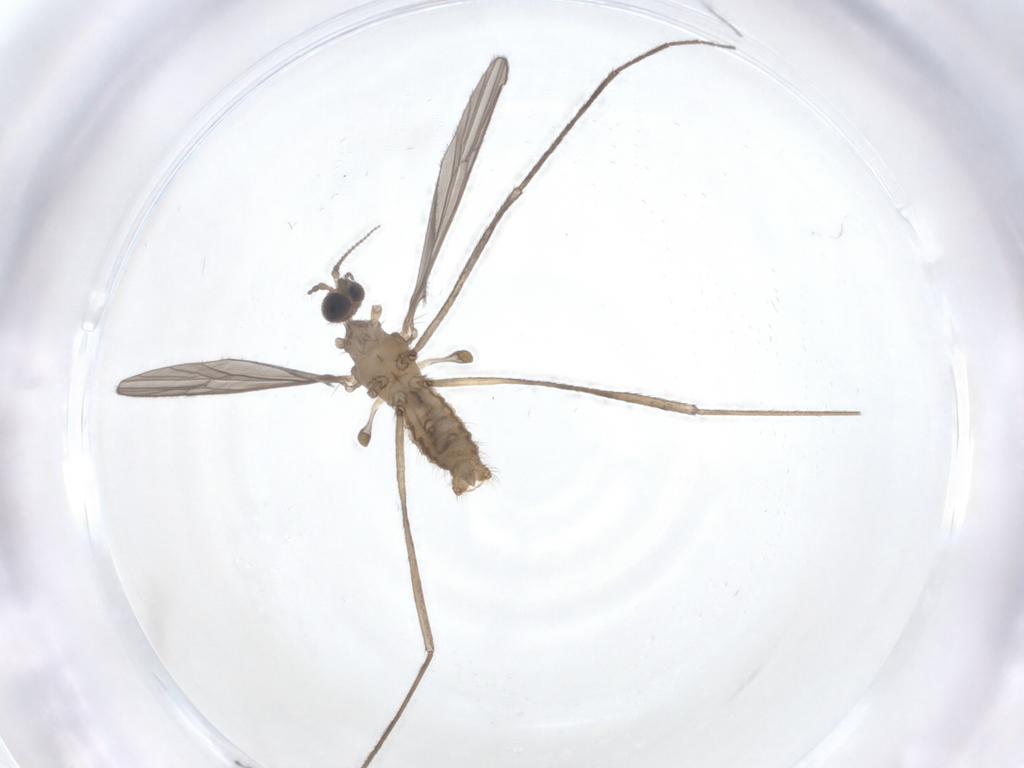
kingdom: Animalia
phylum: Arthropoda
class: Insecta
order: Diptera
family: Limoniidae
